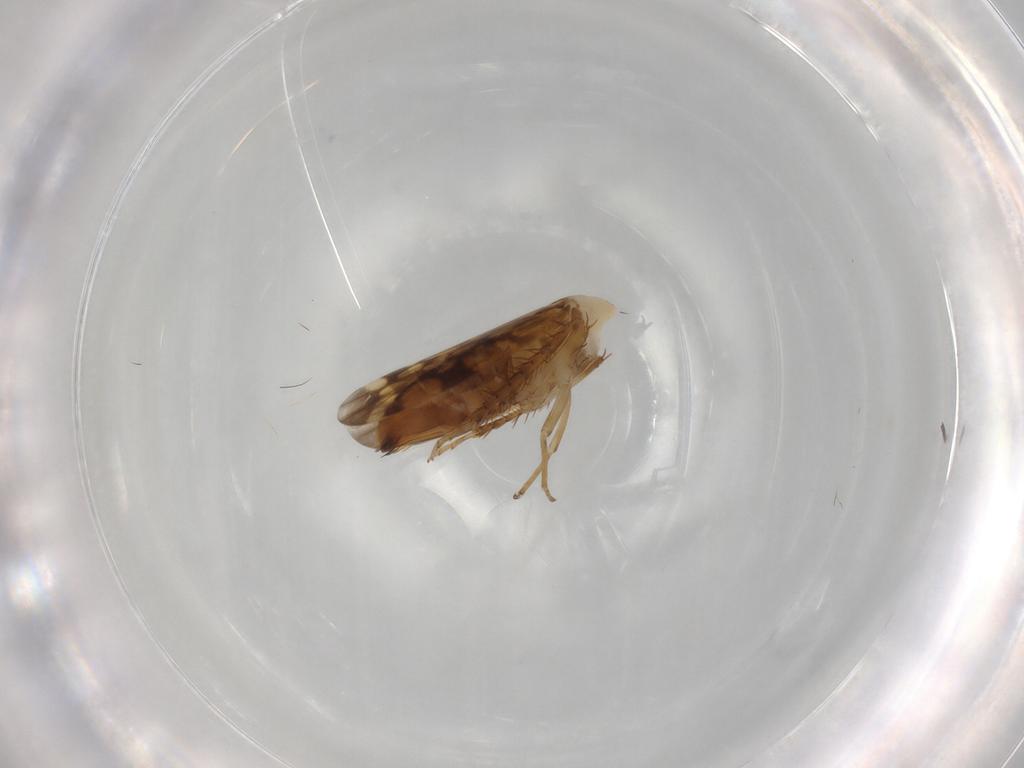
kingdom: Animalia
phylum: Arthropoda
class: Insecta
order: Hemiptera
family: Cicadellidae
